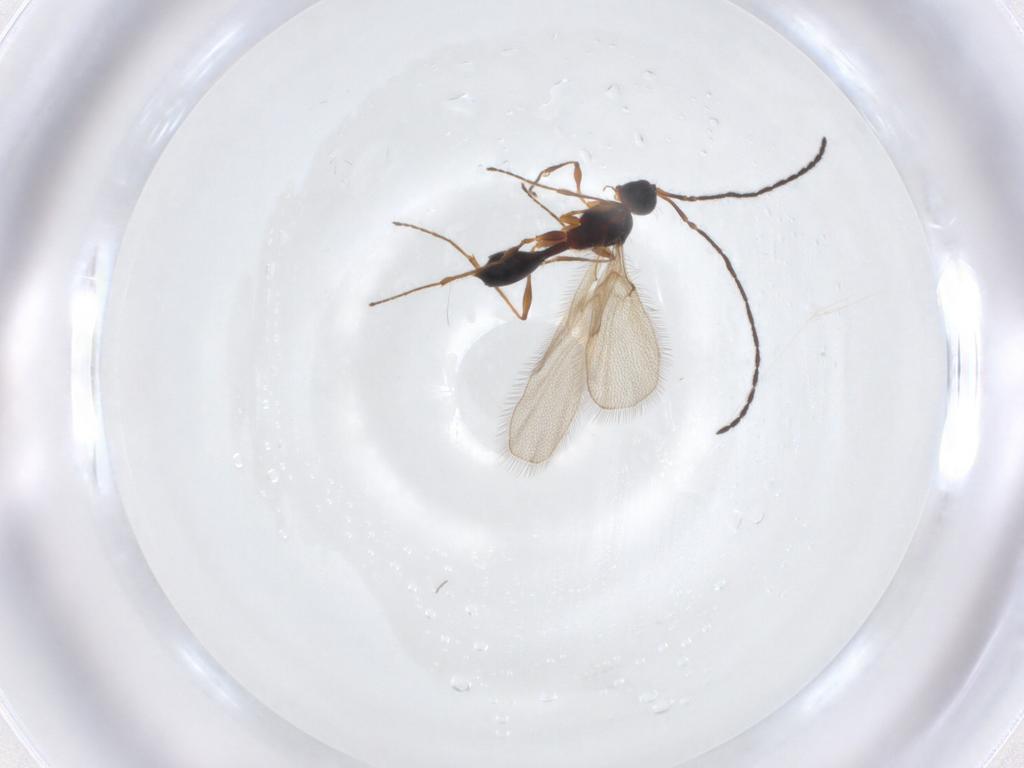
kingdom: Animalia
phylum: Arthropoda
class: Insecta
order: Hymenoptera
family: Diapriidae
